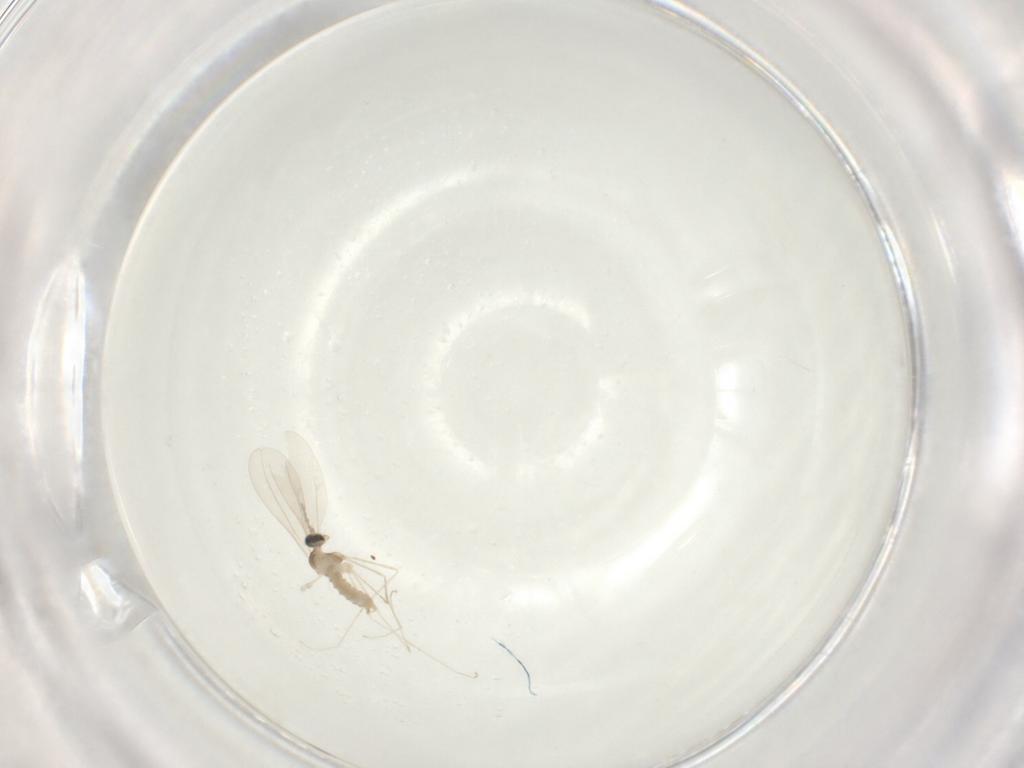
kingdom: Animalia
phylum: Arthropoda
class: Insecta
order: Diptera
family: Cecidomyiidae
